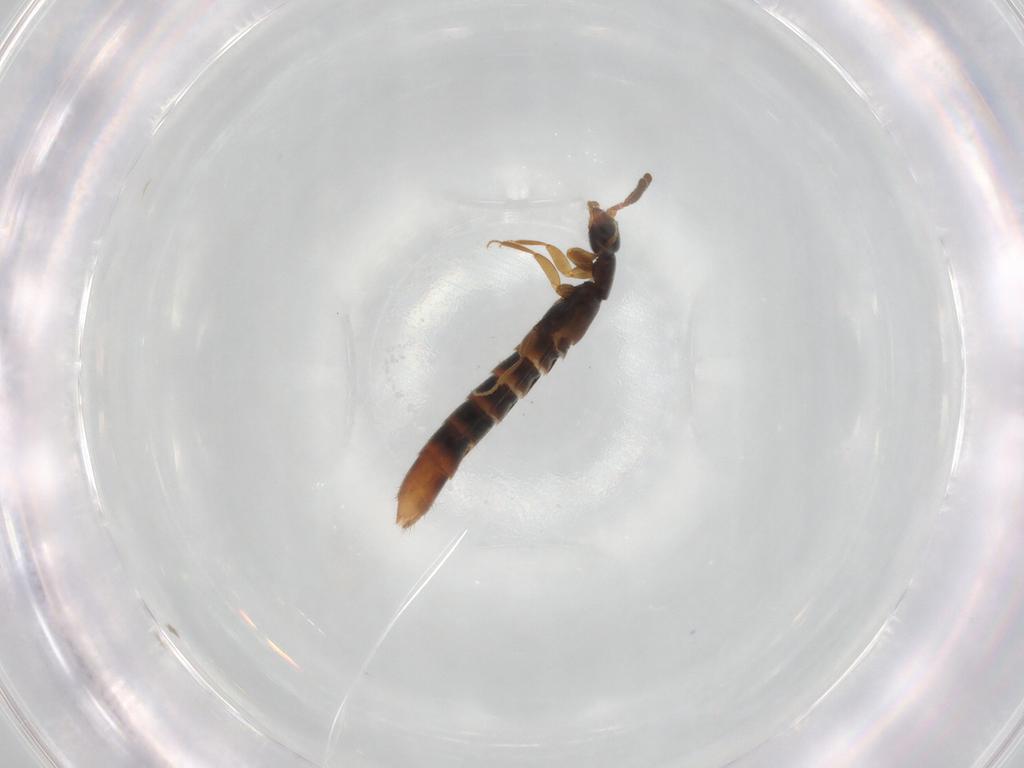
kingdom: Animalia
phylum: Arthropoda
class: Insecta
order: Coleoptera
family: Staphylinidae
